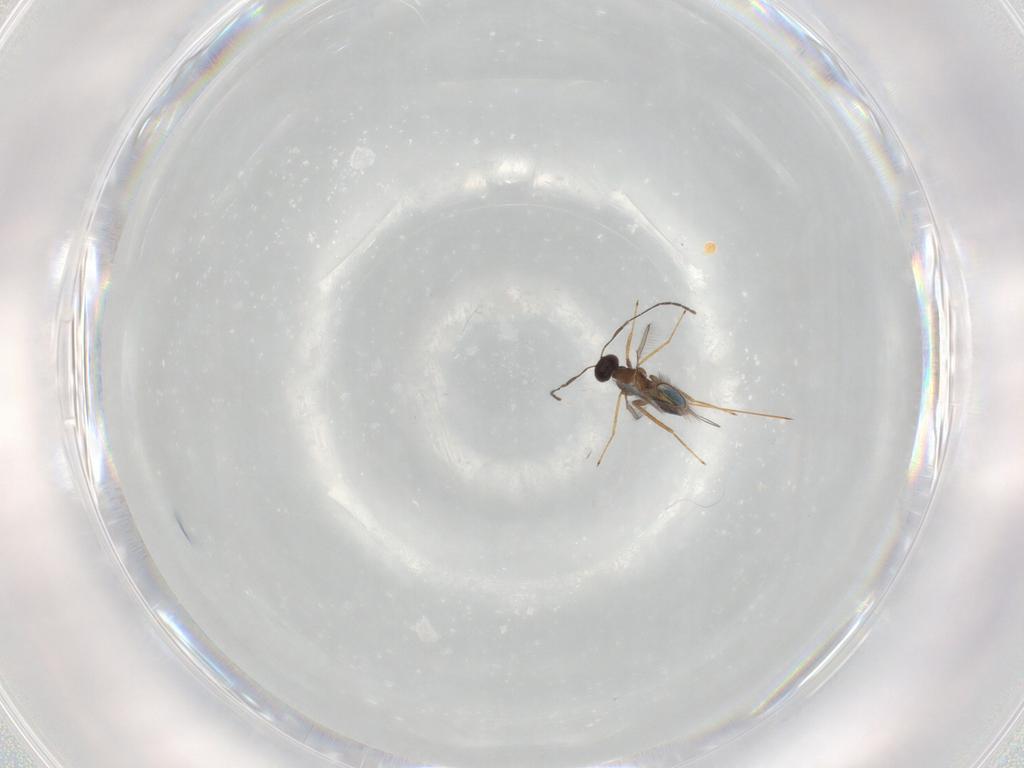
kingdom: Animalia
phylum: Arthropoda
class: Insecta
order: Hymenoptera
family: Mymaridae
